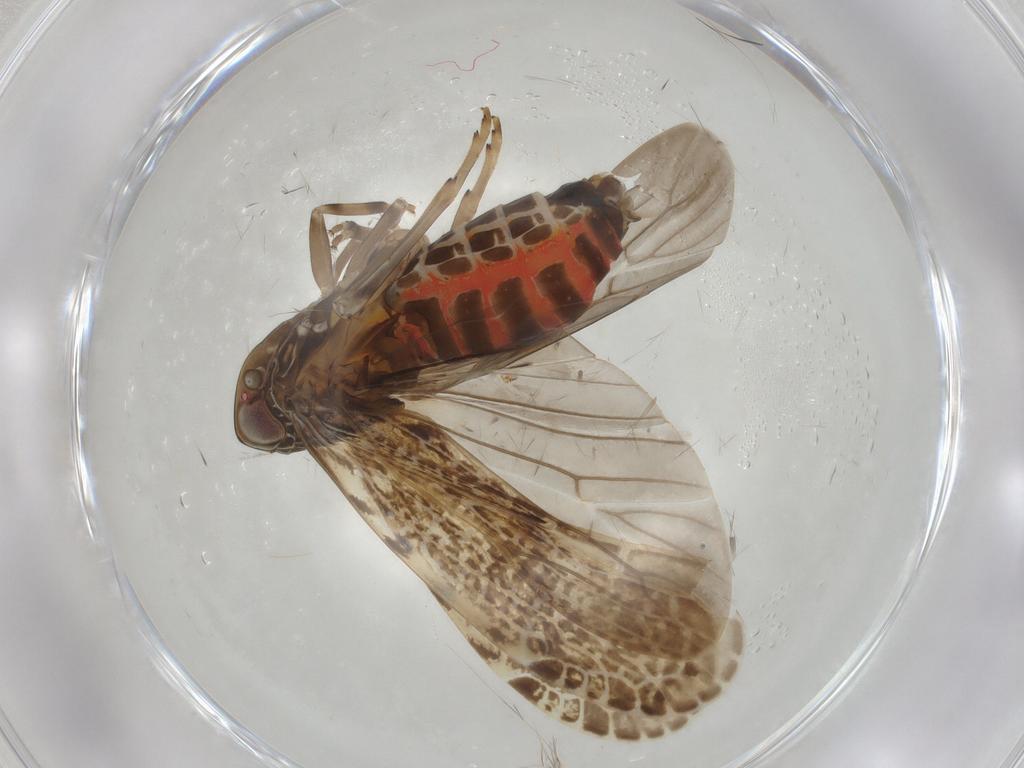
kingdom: Animalia
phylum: Arthropoda
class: Insecta
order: Hemiptera
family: Achilidae
